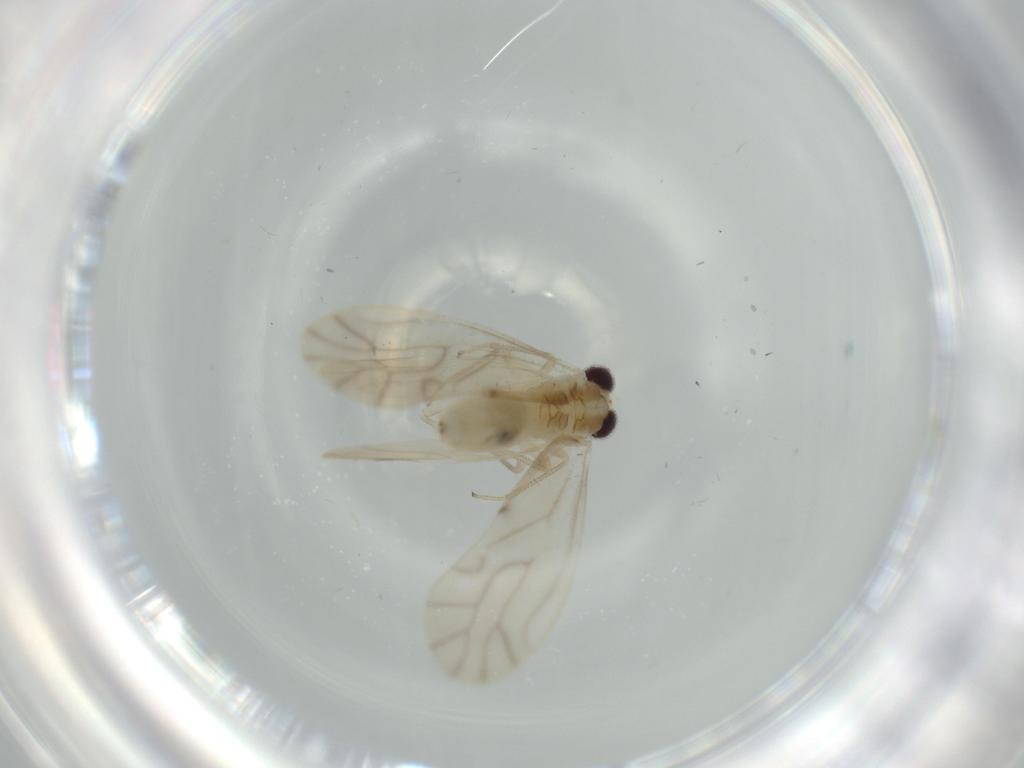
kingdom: Animalia
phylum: Arthropoda
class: Insecta
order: Psocodea
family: Caeciliusidae
